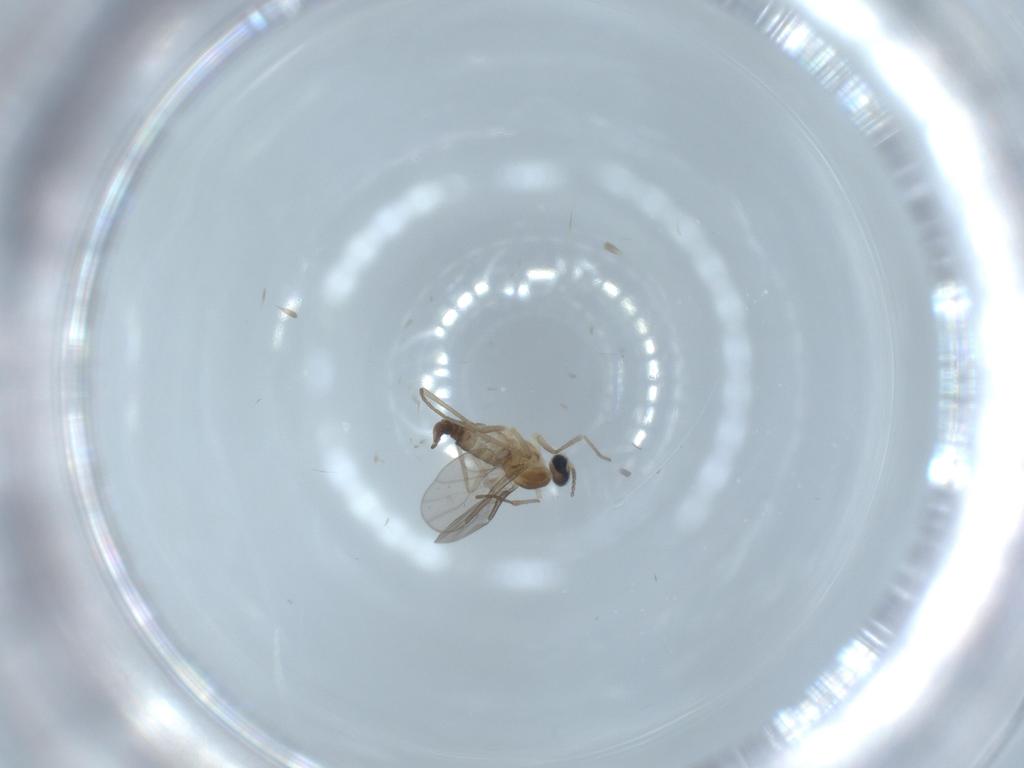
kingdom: Animalia
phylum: Arthropoda
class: Insecta
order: Diptera
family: Cecidomyiidae
